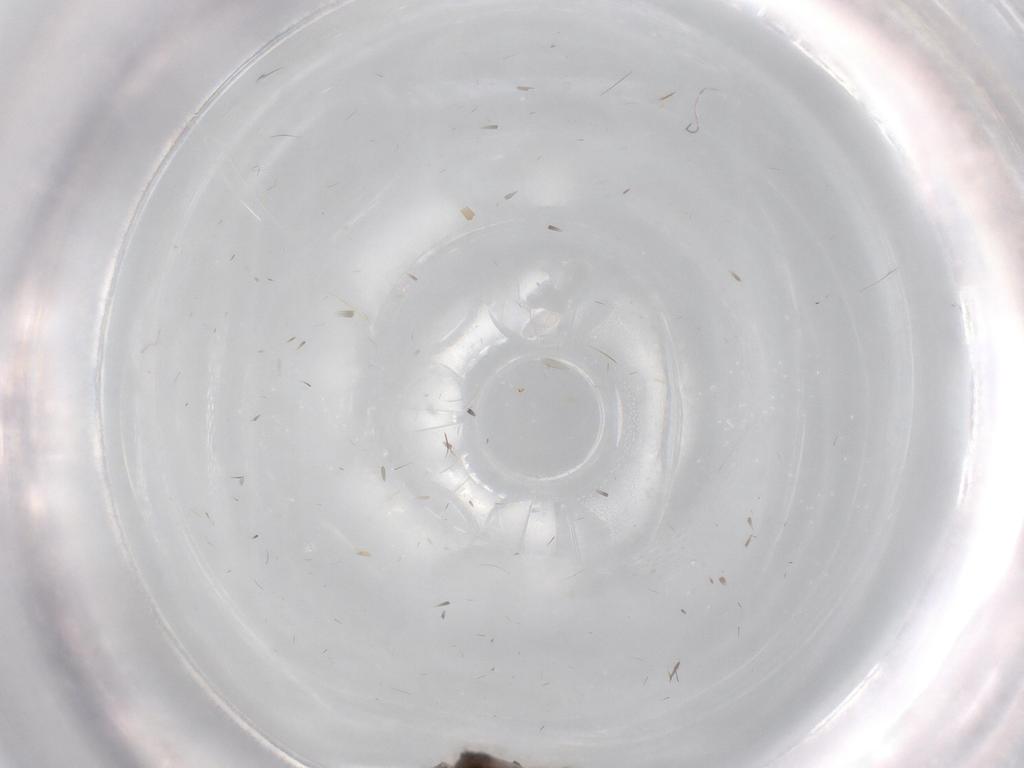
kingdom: Animalia
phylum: Arthropoda
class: Insecta
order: Diptera
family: Limoniidae
